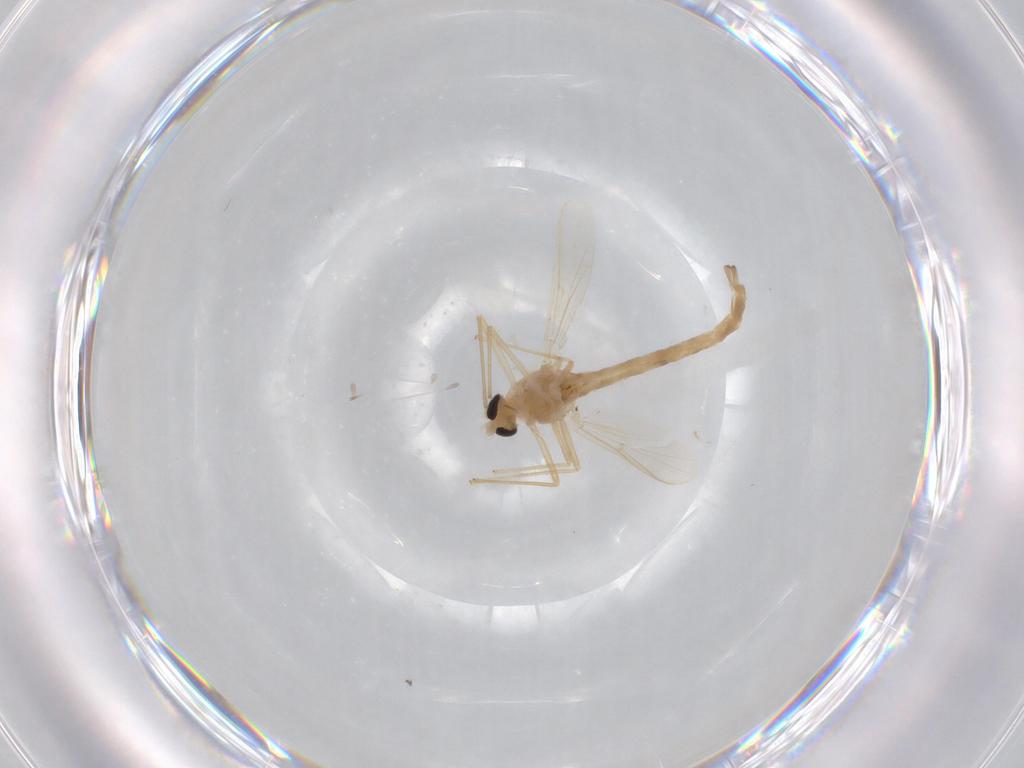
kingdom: Animalia
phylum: Arthropoda
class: Insecta
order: Diptera
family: Chironomidae
